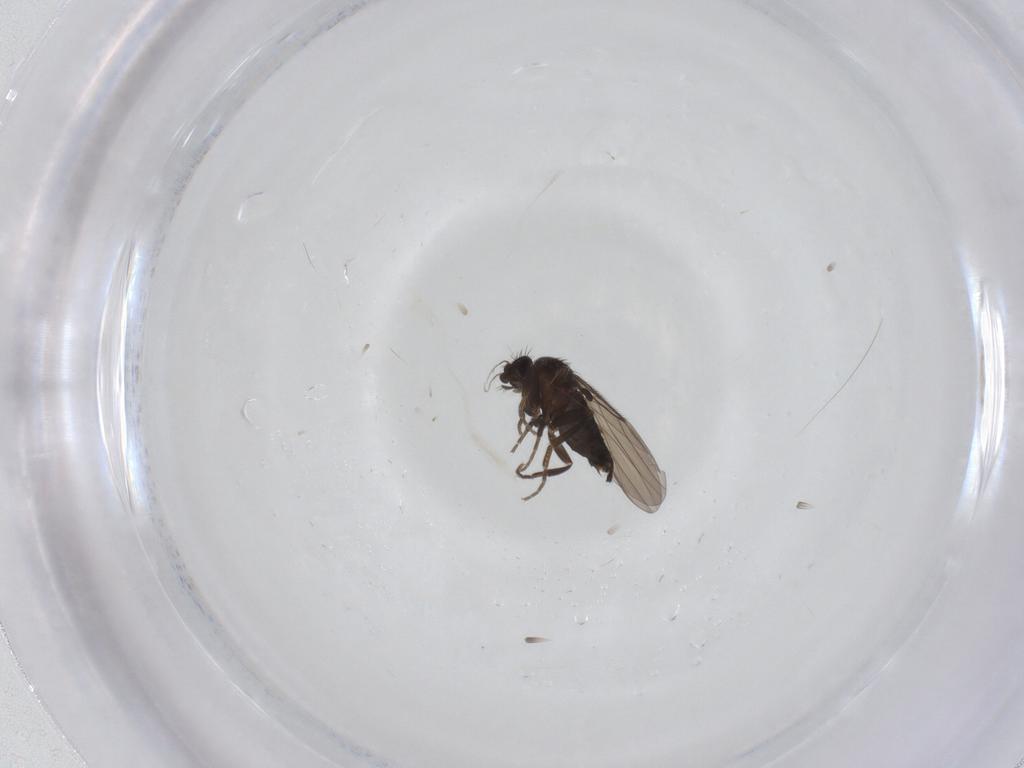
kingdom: Animalia
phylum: Arthropoda
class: Insecta
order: Diptera
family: Phoridae
